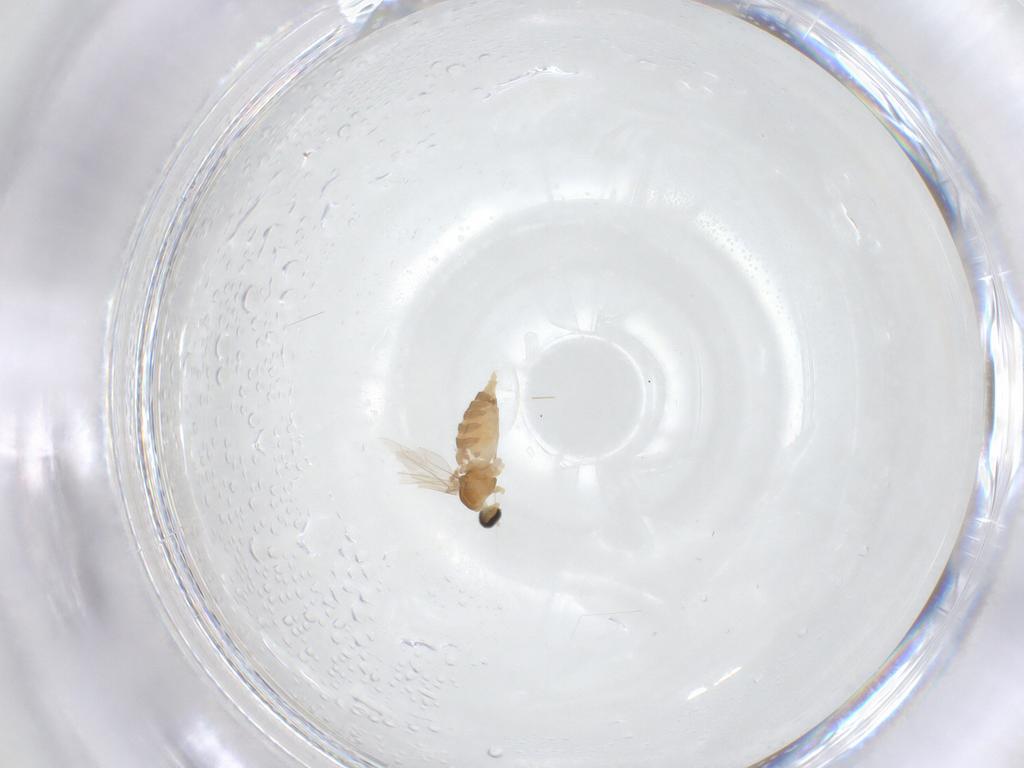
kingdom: Animalia
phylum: Arthropoda
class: Insecta
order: Diptera
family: Cecidomyiidae
